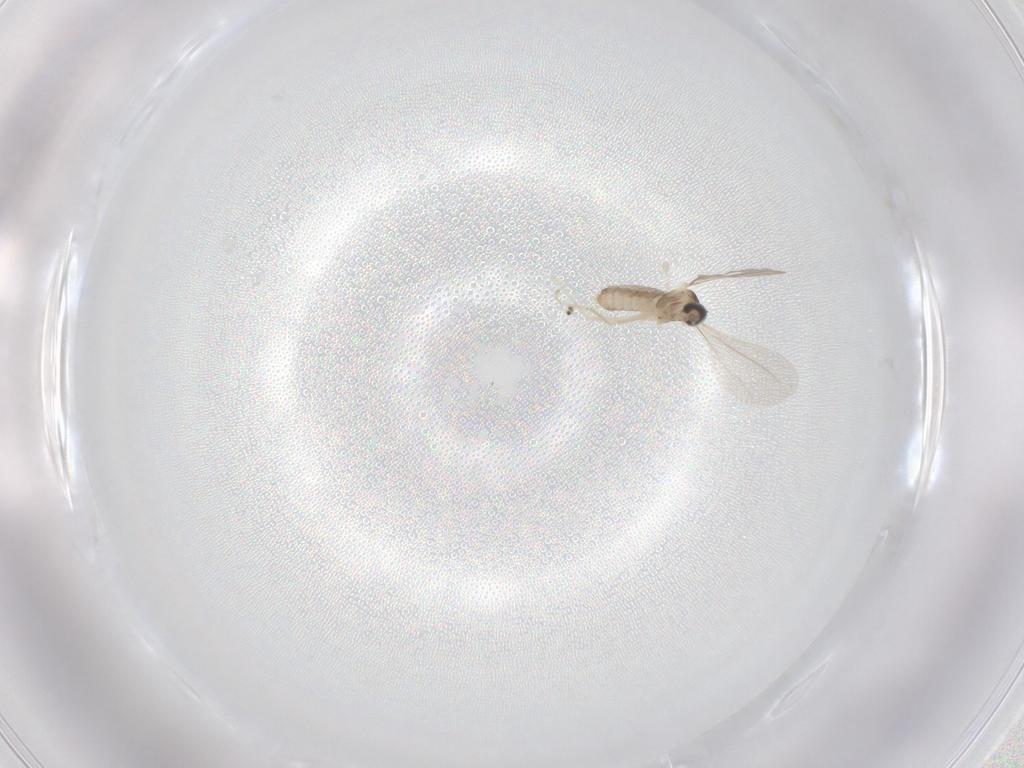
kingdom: Animalia
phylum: Arthropoda
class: Insecta
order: Diptera
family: Cecidomyiidae
